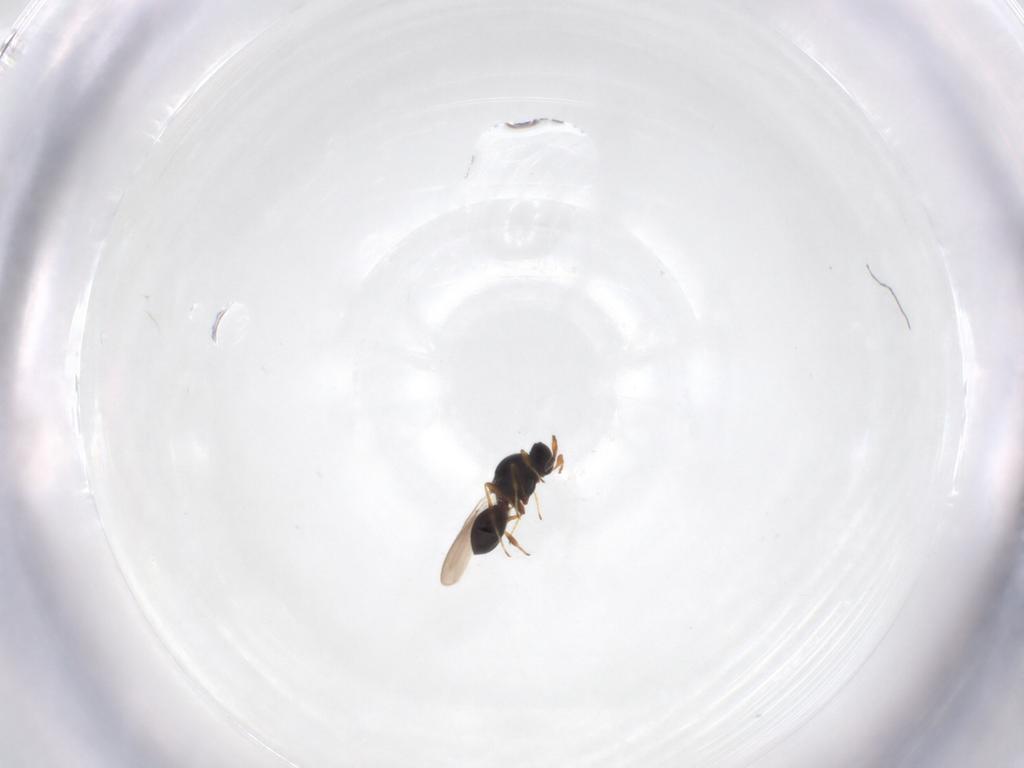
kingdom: Animalia
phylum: Arthropoda
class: Insecta
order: Hymenoptera
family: Platygastridae
